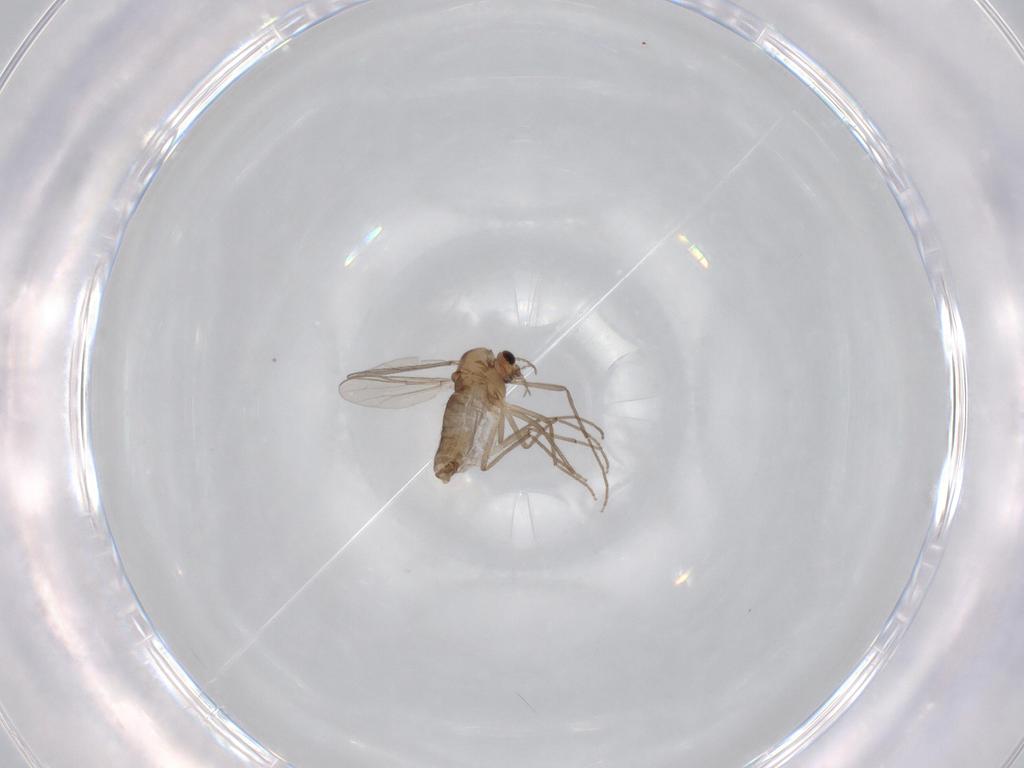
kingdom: Animalia
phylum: Arthropoda
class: Insecta
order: Diptera
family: Chironomidae
